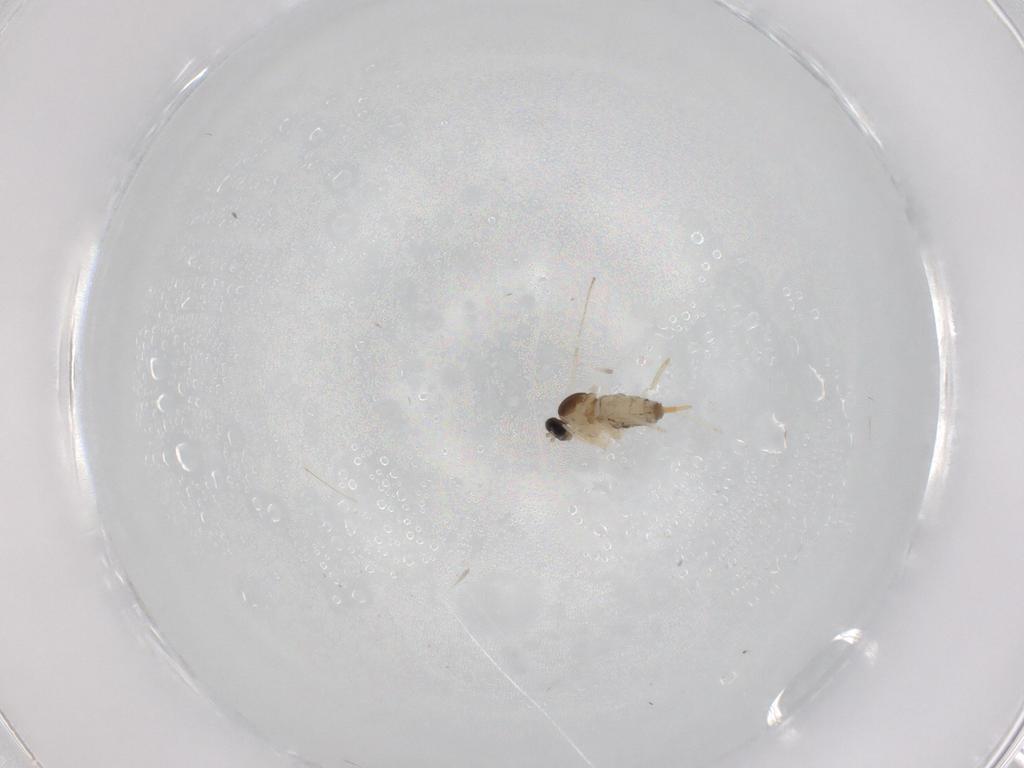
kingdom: Animalia
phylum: Arthropoda
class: Insecta
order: Diptera
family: Cecidomyiidae
